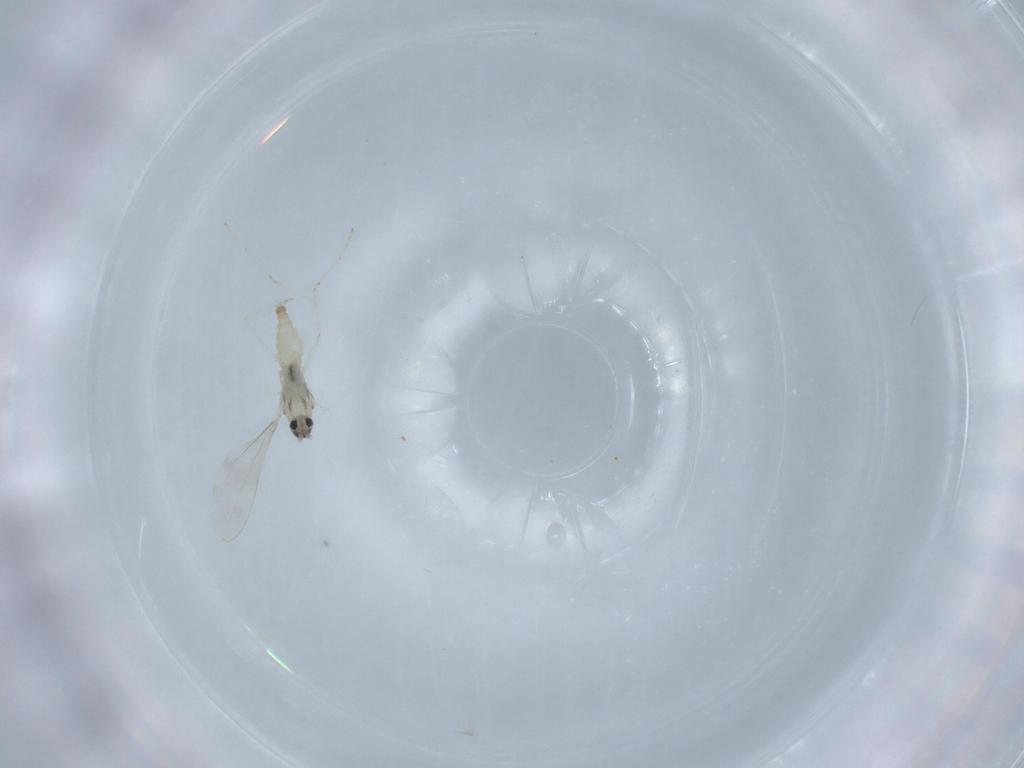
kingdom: Animalia
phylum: Arthropoda
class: Insecta
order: Diptera
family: Cecidomyiidae
